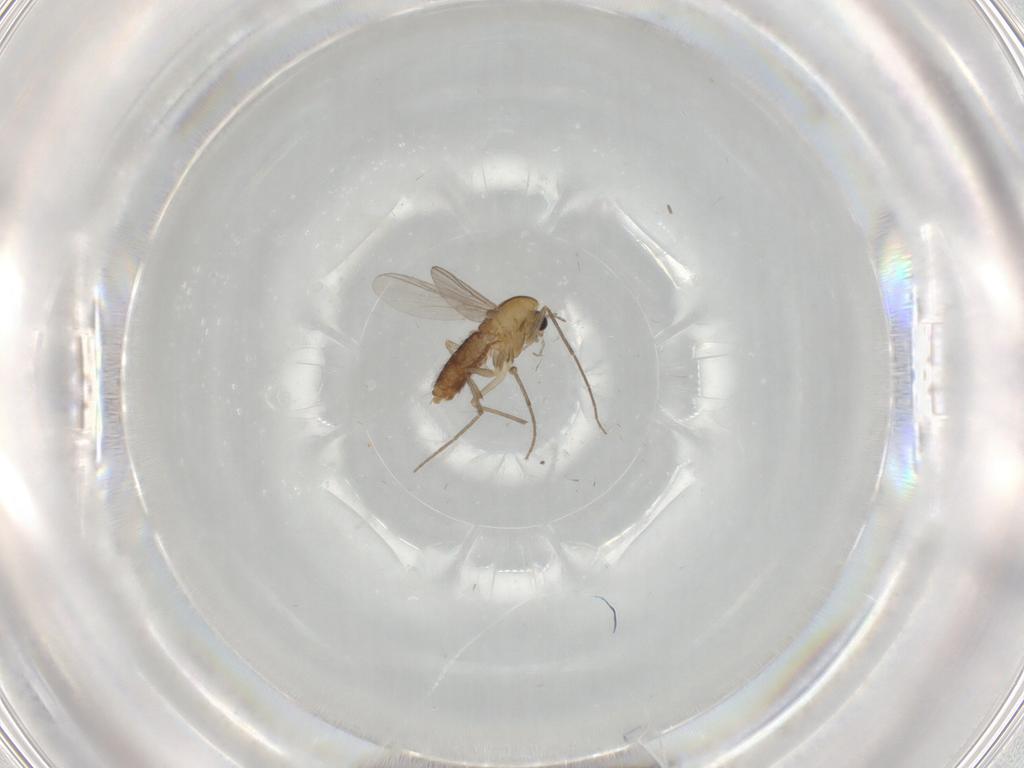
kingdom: Animalia
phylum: Arthropoda
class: Insecta
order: Diptera
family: Chironomidae
